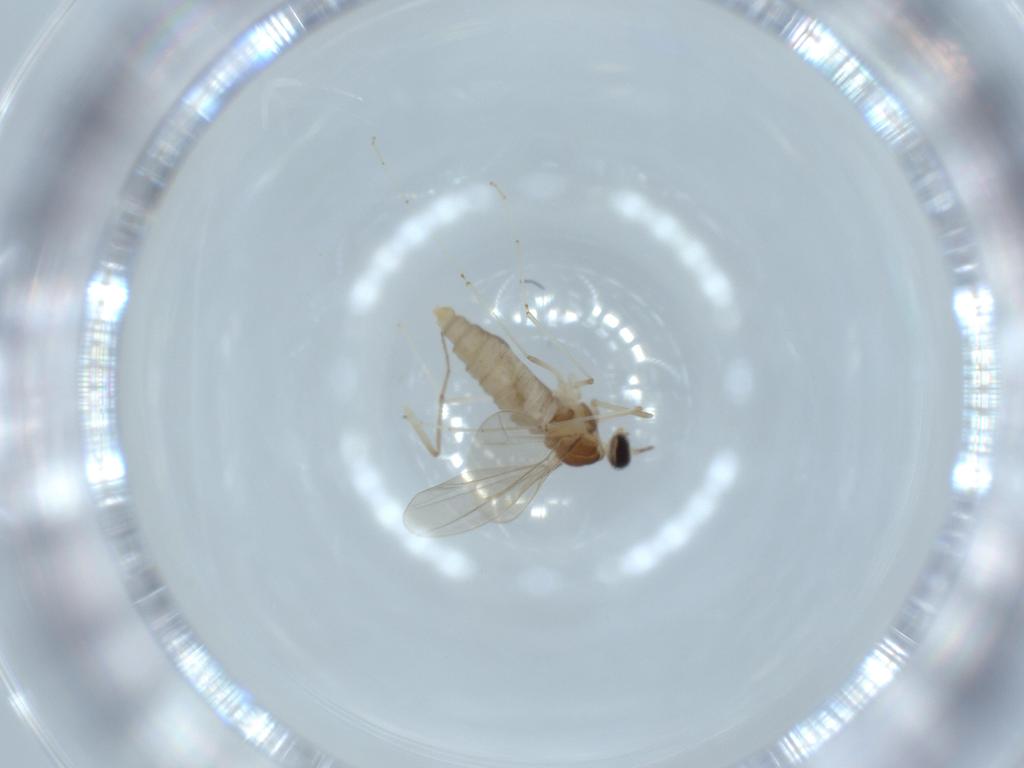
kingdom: Animalia
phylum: Arthropoda
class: Insecta
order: Diptera
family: Cecidomyiidae
